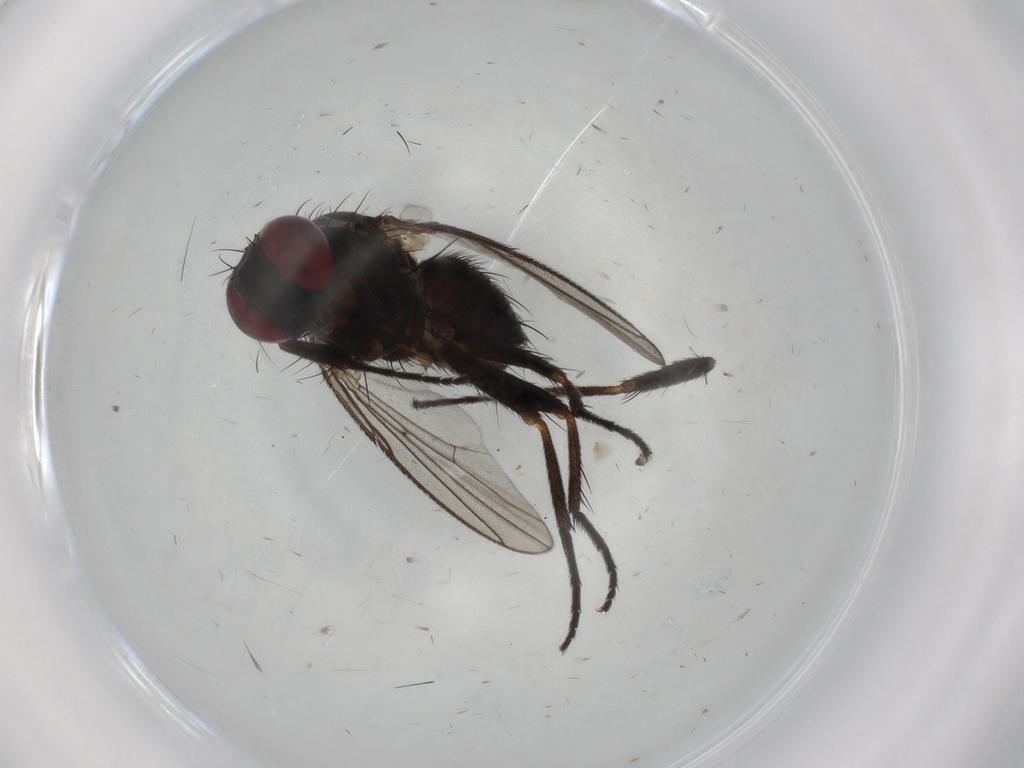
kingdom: Animalia
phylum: Arthropoda
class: Insecta
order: Diptera
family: Muscidae
